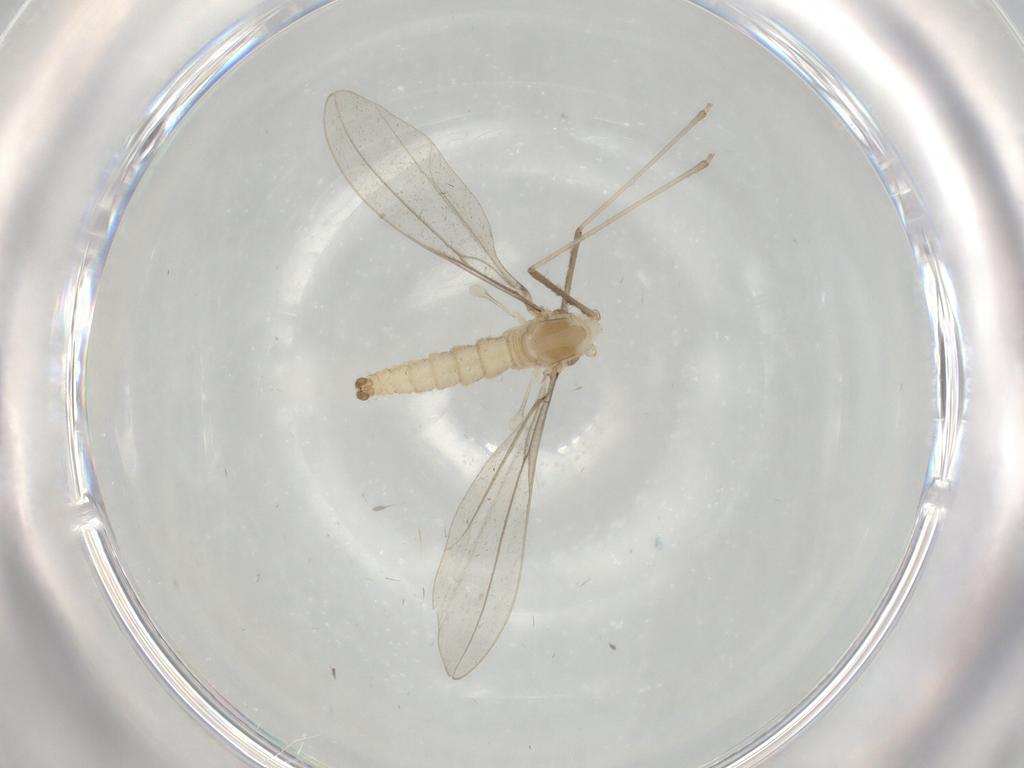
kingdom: Animalia
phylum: Arthropoda
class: Insecta
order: Diptera
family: Cecidomyiidae
